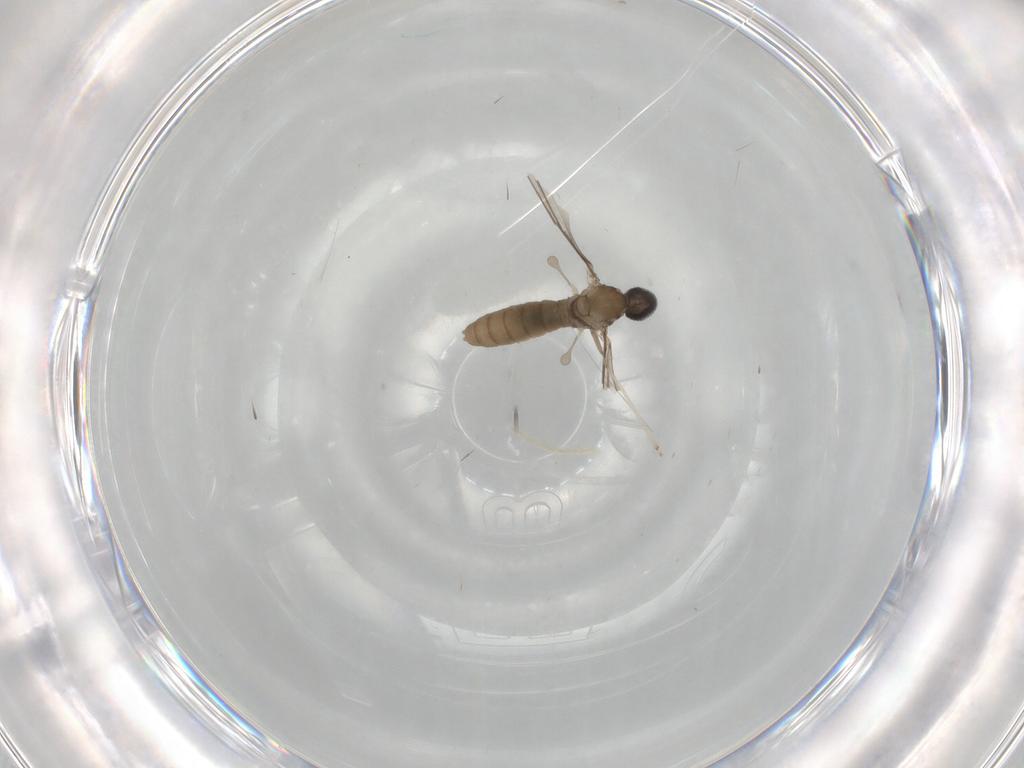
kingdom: Animalia
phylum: Arthropoda
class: Insecta
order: Diptera
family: Cecidomyiidae
